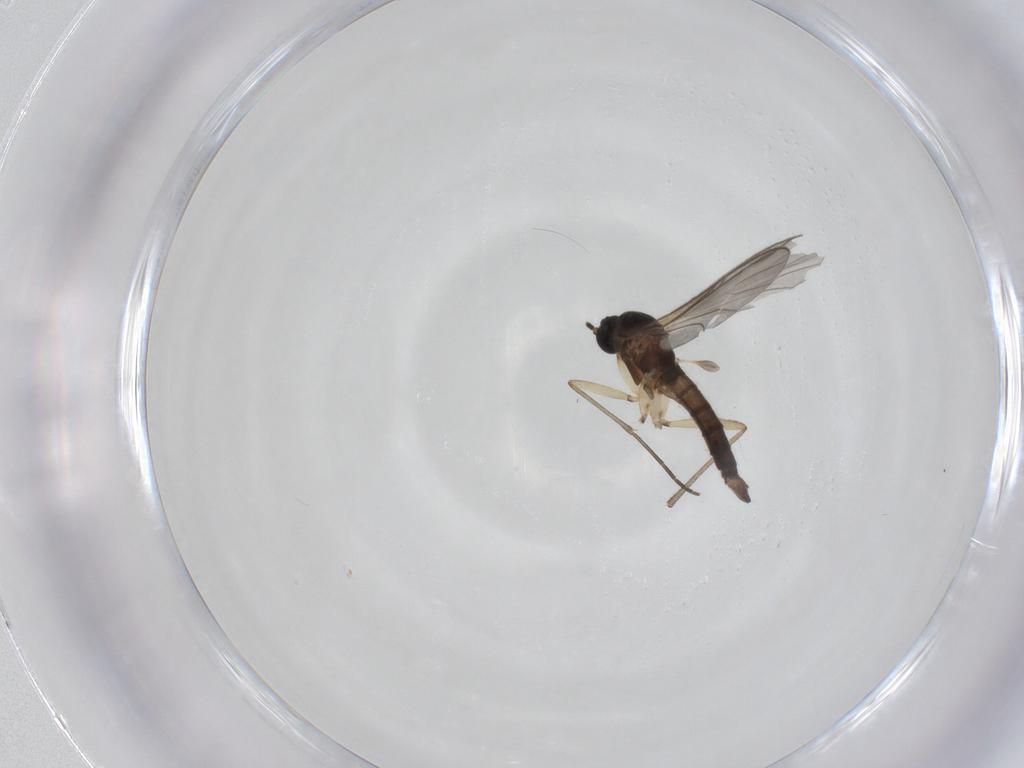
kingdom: Animalia
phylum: Arthropoda
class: Insecta
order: Diptera
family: Sciaridae
